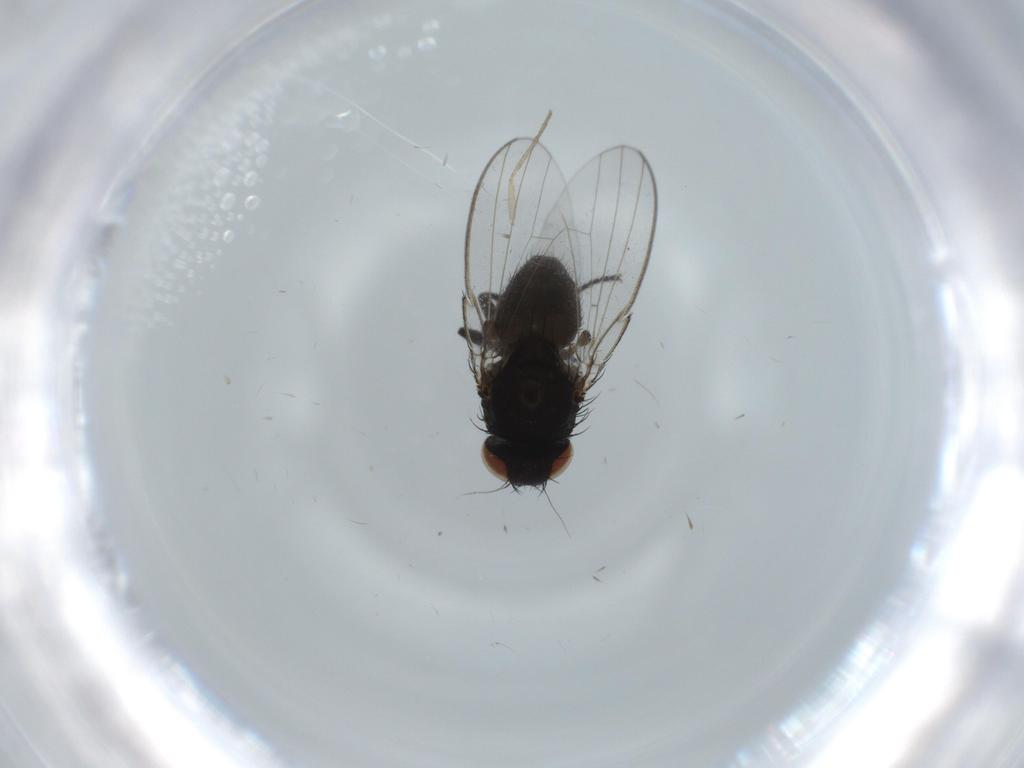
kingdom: Animalia
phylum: Arthropoda
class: Insecta
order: Diptera
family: Milichiidae
